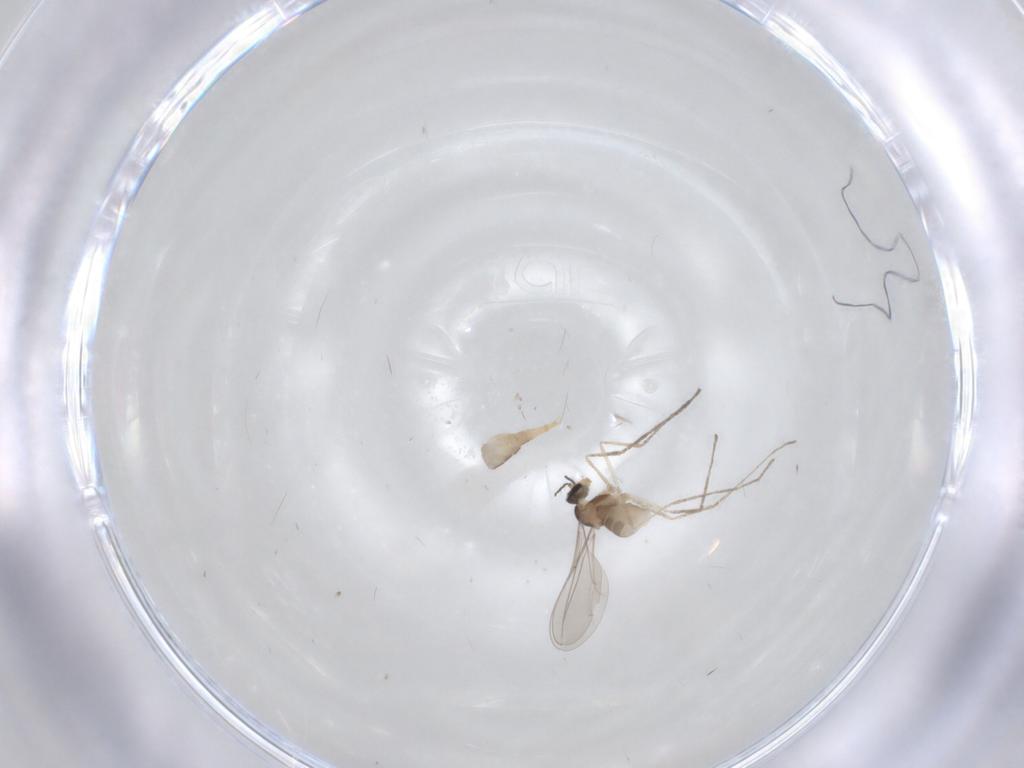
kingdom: Animalia
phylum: Arthropoda
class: Insecta
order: Diptera
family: Cecidomyiidae
